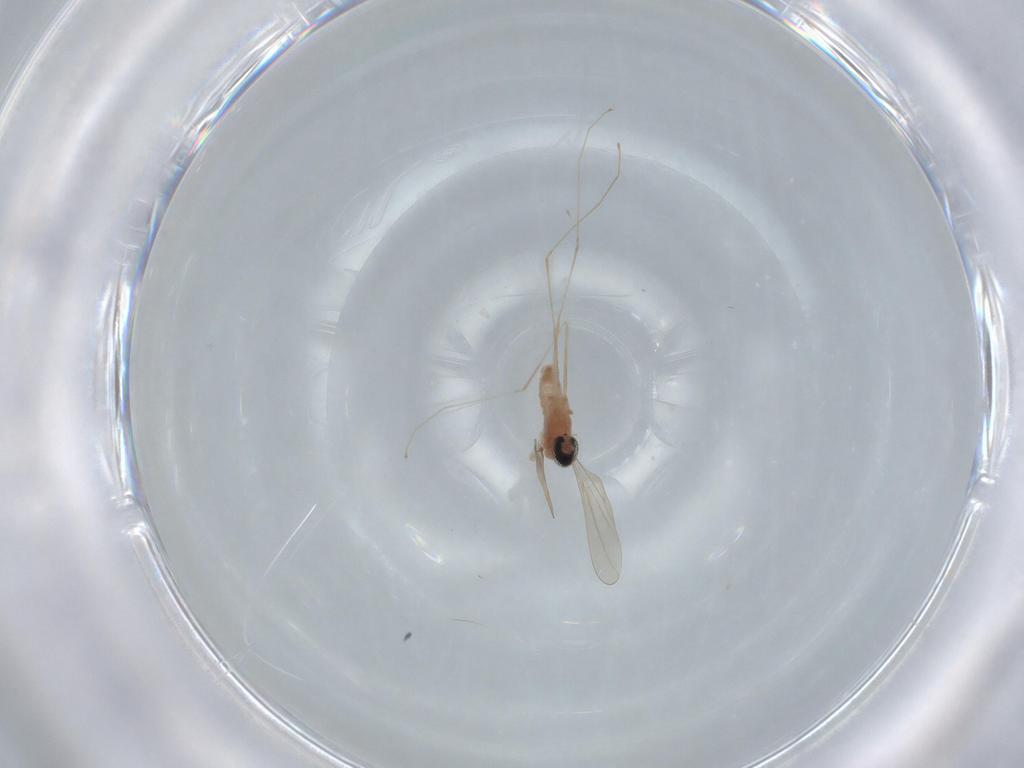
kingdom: Animalia
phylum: Arthropoda
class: Insecta
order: Diptera
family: Cecidomyiidae
